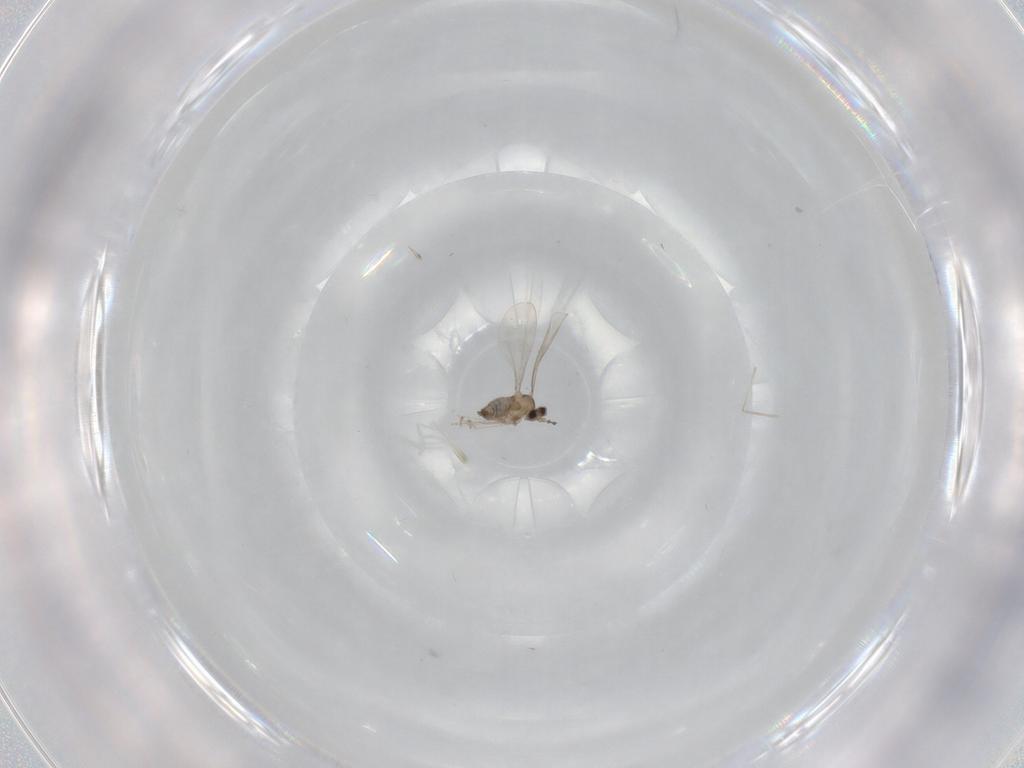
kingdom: Animalia
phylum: Arthropoda
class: Insecta
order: Diptera
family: Cecidomyiidae
